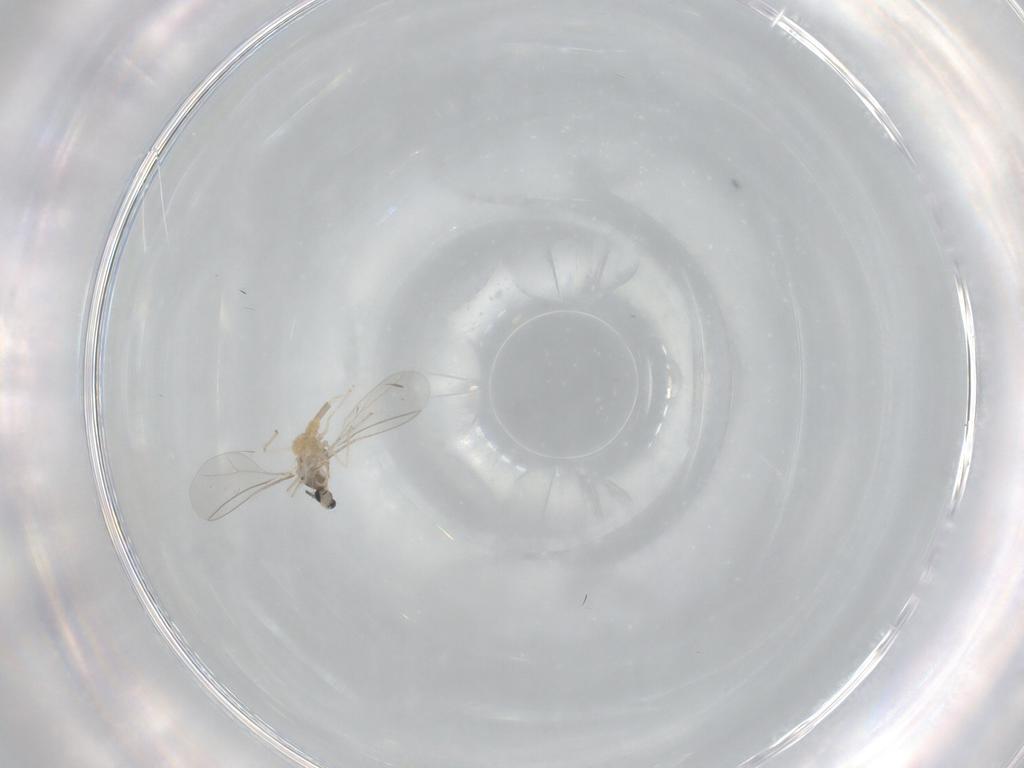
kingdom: Animalia
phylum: Arthropoda
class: Insecta
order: Diptera
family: Cecidomyiidae
